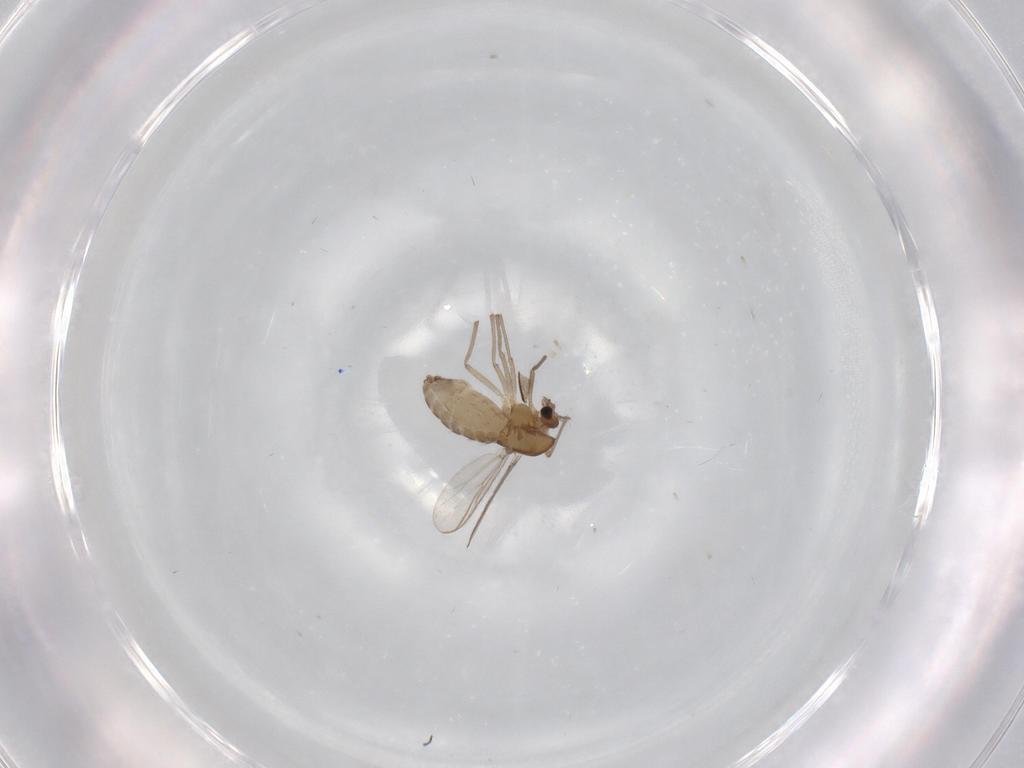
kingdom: Animalia
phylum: Arthropoda
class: Insecta
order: Diptera
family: Chironomidae
